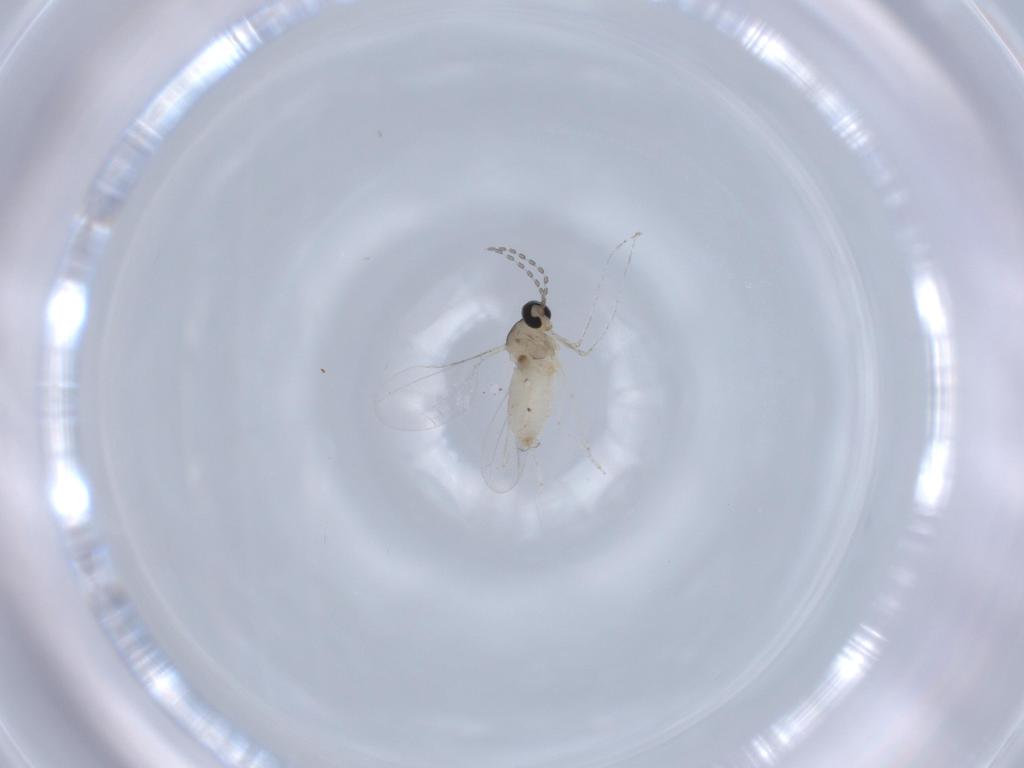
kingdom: Animalia
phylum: Arthropoda
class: Insecta
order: Diptera
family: Cecidomyiidae
